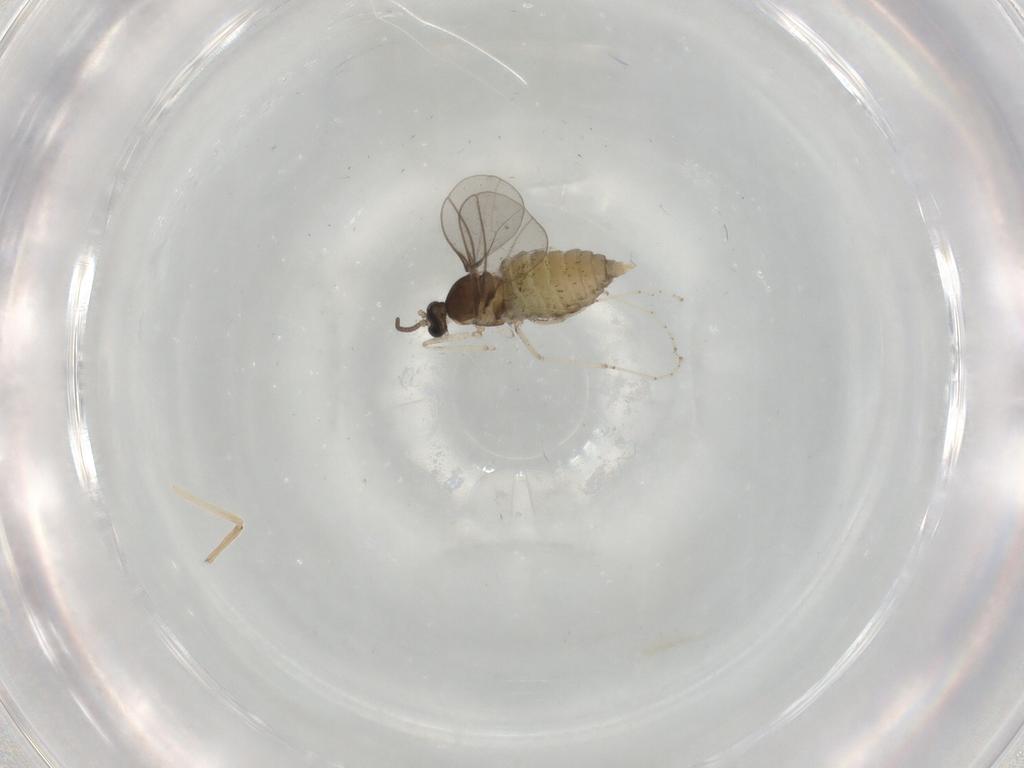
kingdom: Animalia
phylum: Arthropoda
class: Insecta
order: Diptera
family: Cecidomyiidae
